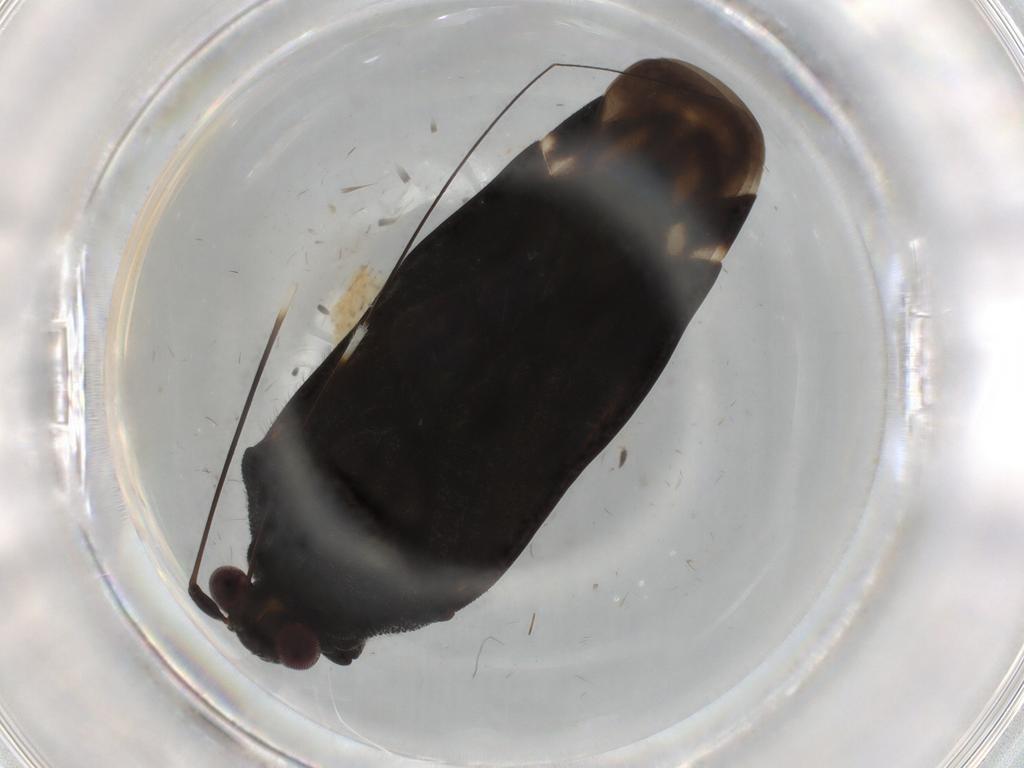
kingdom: Animalia
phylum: Arthropoda
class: Insecta
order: Hemiptera
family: Miridae
